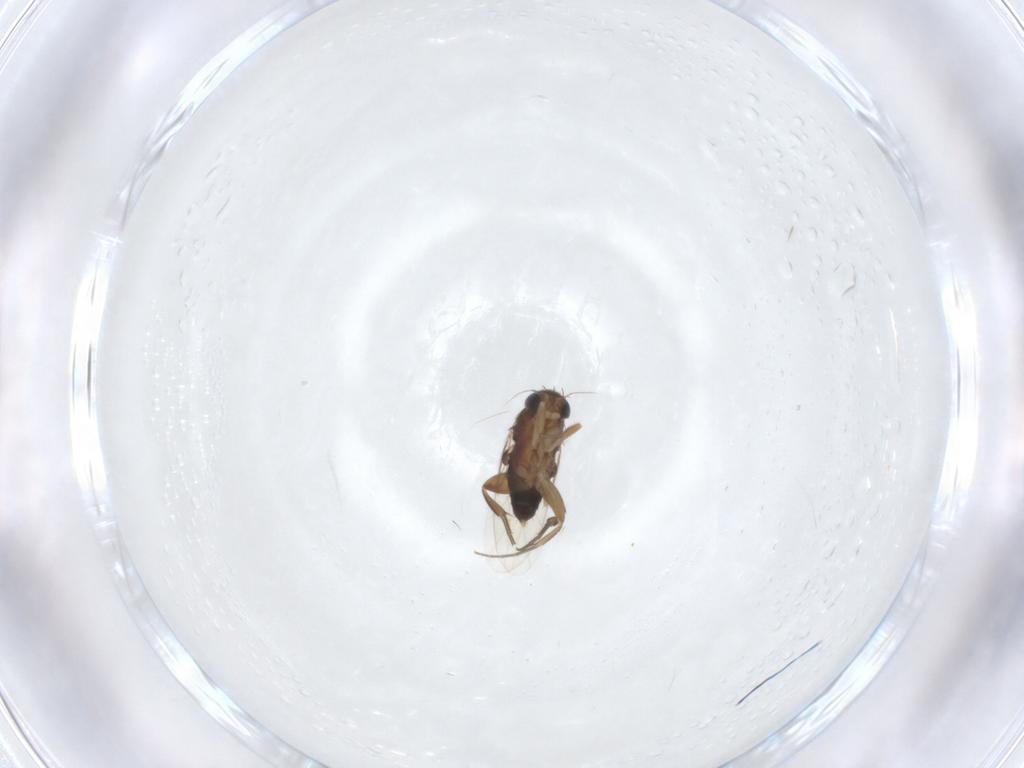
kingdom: Animalia
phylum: Arthropoda
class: Insecta
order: Diptera
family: Phoridae
